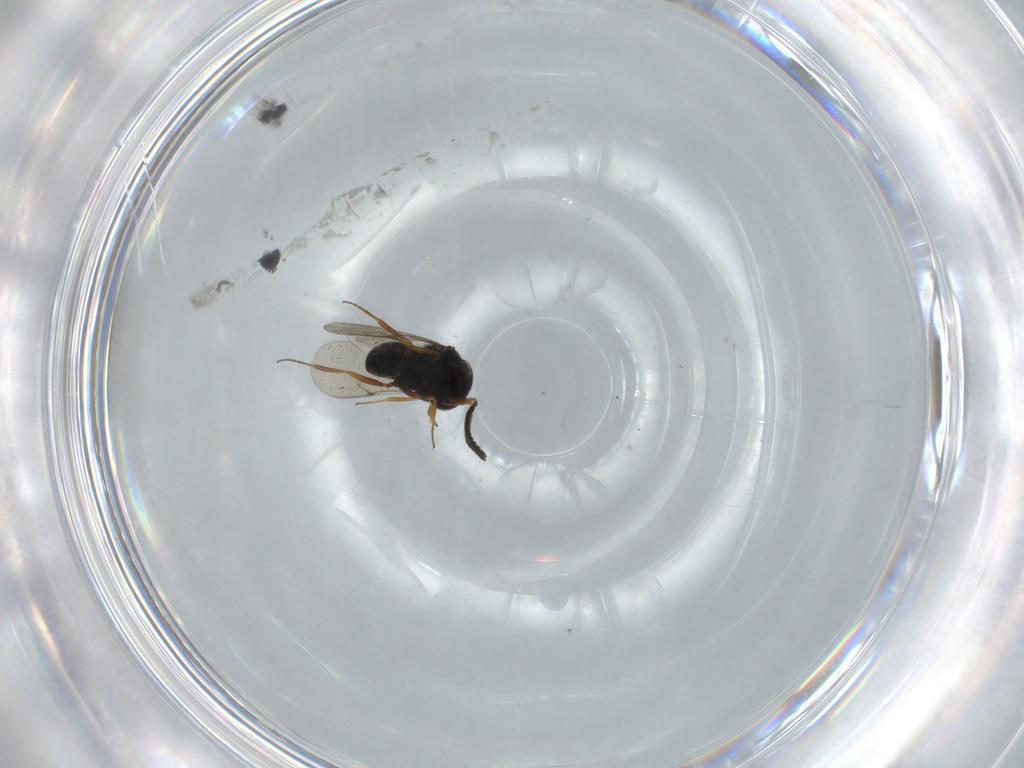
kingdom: Animalia
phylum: Arthropoda
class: Insecta
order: Hymenoptera
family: Scelionidae
